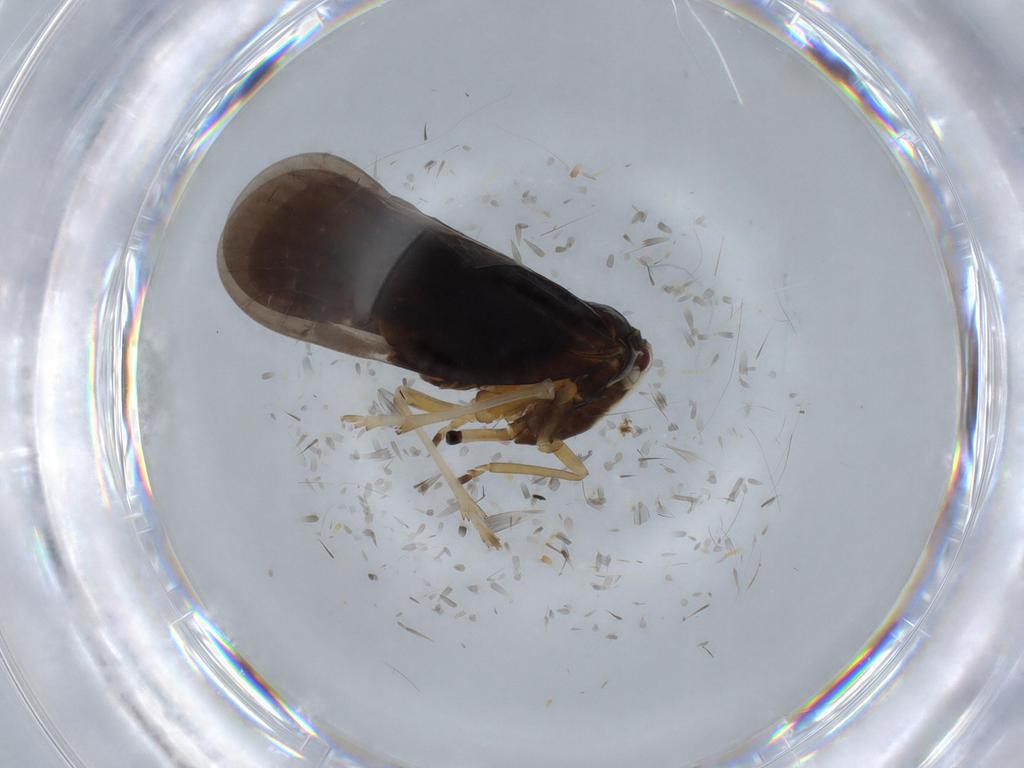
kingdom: Animalia
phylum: Arthropoda
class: Insecta
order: Hemiptera
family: Derbidae
